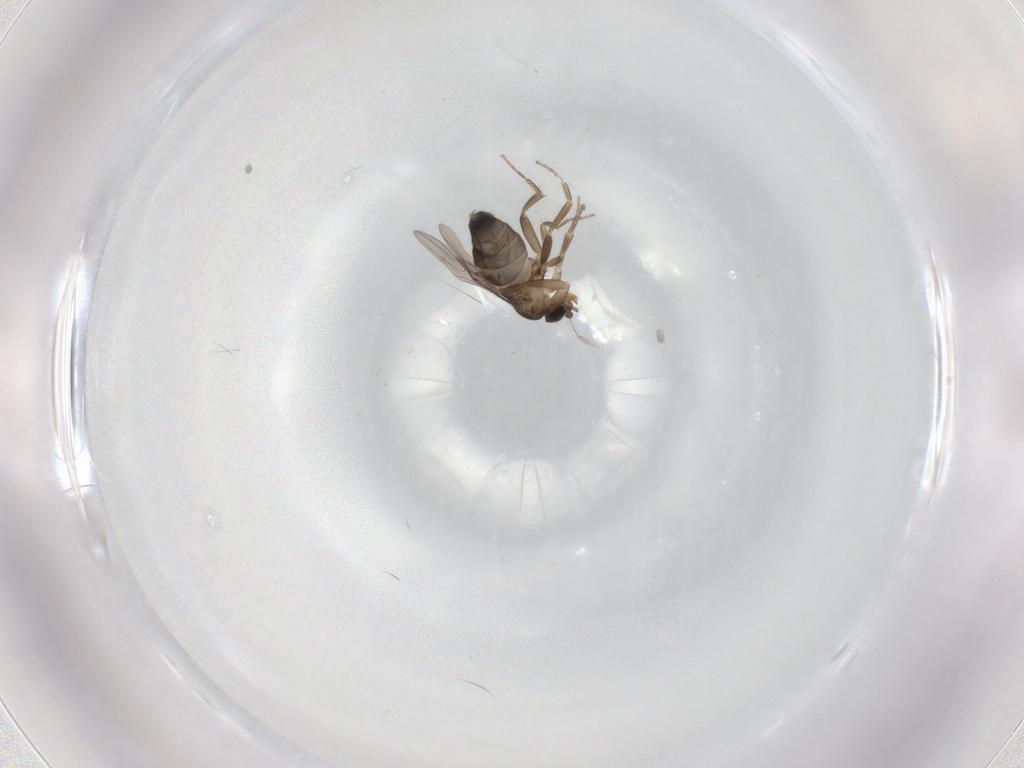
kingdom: Animalia
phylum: Arthropoda
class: Insecta
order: Diptera
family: Phoridae
